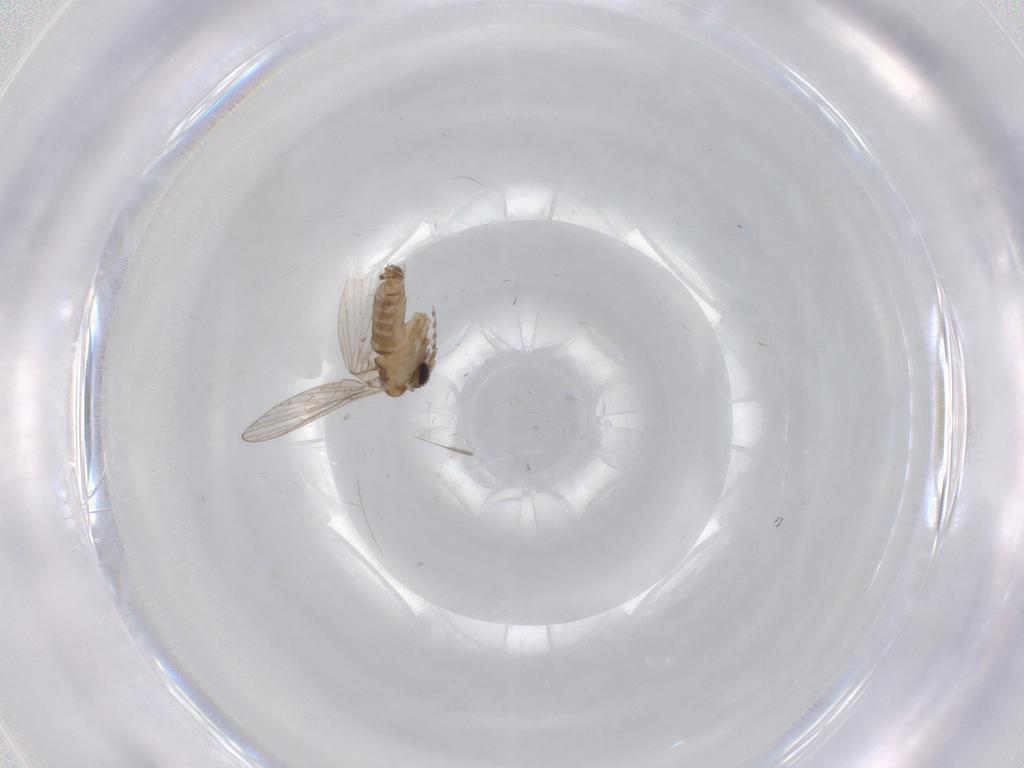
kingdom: Animalia
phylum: Arthropoda
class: Insecta
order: Diptera
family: Psychodidae
